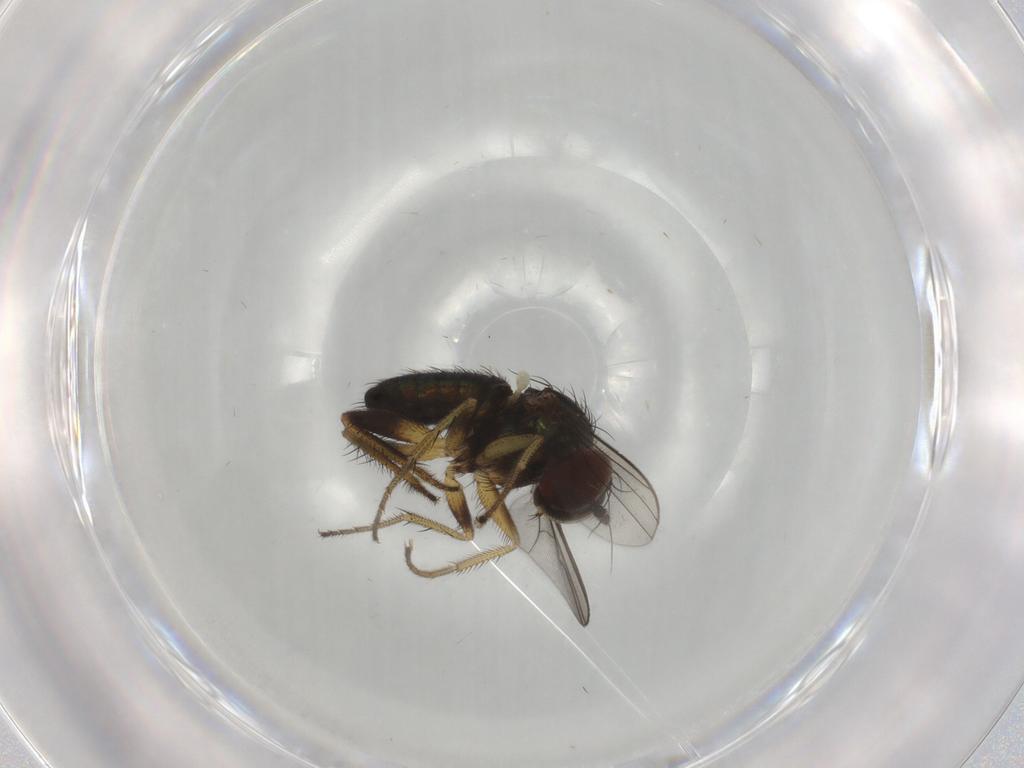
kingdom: Animalia
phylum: Arthropoda
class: Insecta
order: Diptera
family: Dolichopodidae
